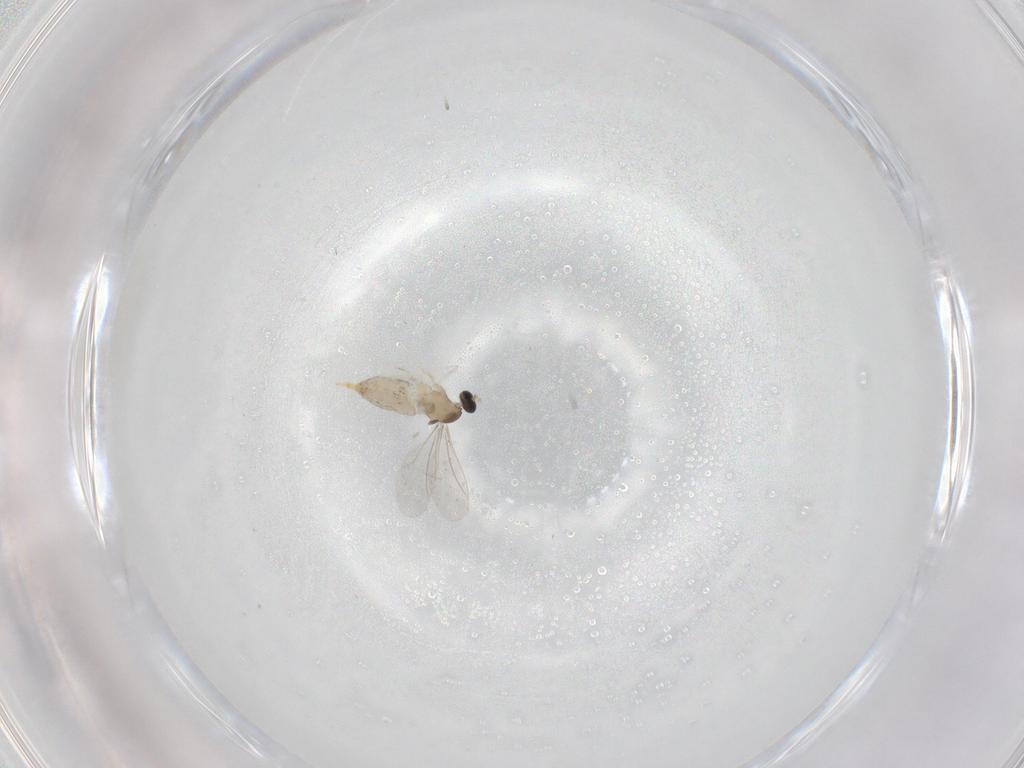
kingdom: Animalia
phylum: Arthropoda
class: Insecta
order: Diptera
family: Cecidomyiidae
